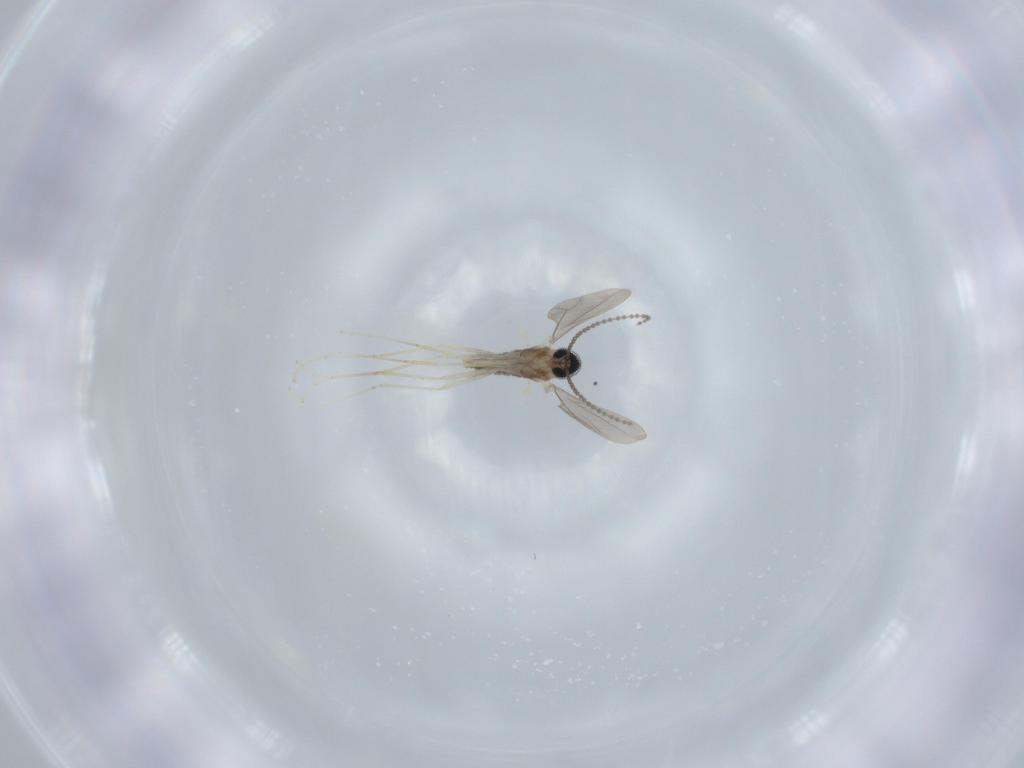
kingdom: Animalia
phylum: Arthropoda
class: Insecta
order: Diptera
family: Cecidomyiidae
